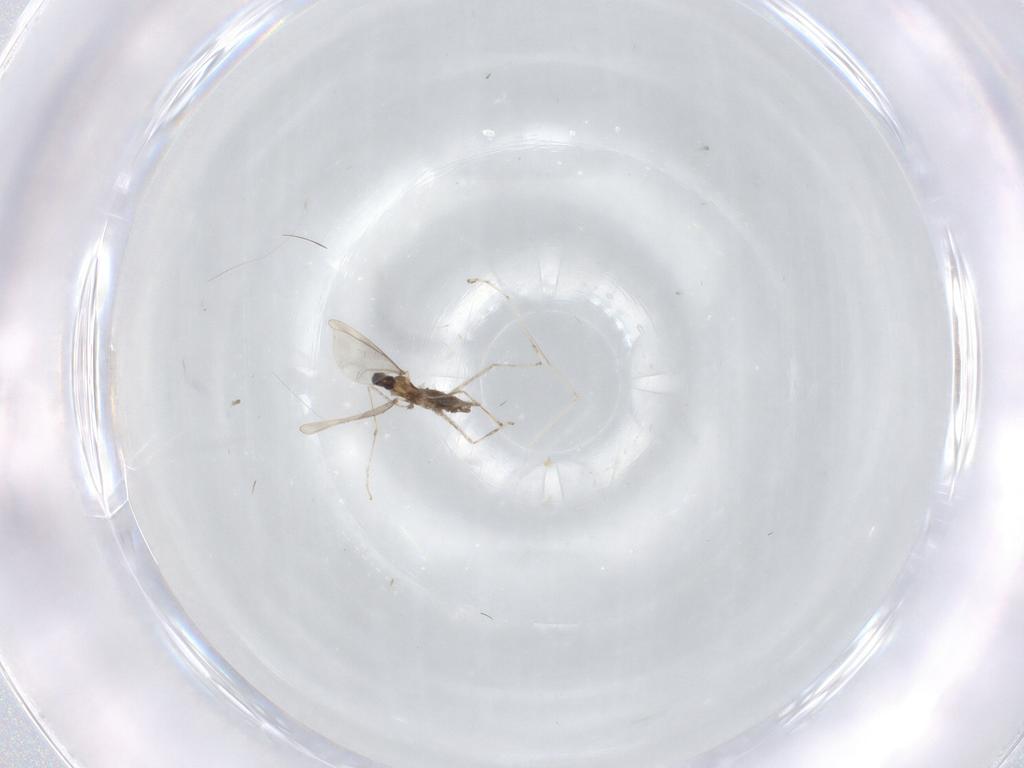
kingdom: Animalia
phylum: Arthropoda
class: Insecta
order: Diptera
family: Cecidomyiidae
